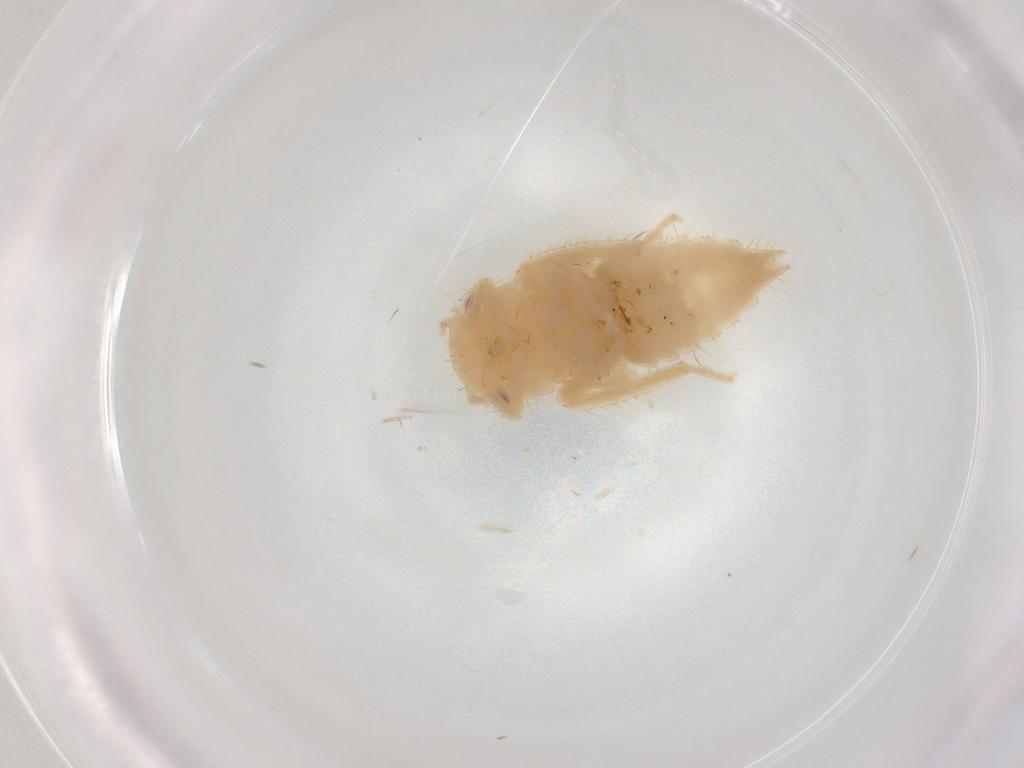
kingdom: Animalia
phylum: Arthropoda
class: Insecta
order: Hemiptera
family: Cicadellidae
